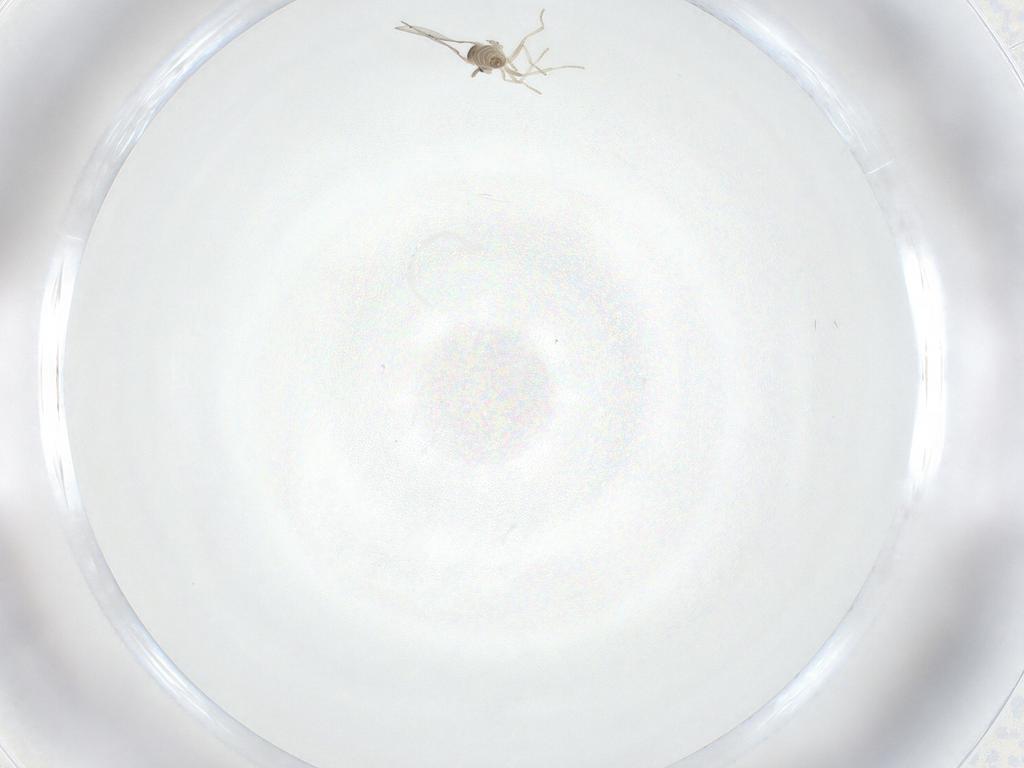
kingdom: Animalia
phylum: Arthropoda
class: Insecta
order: Diptera
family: Cecidomyiidae
